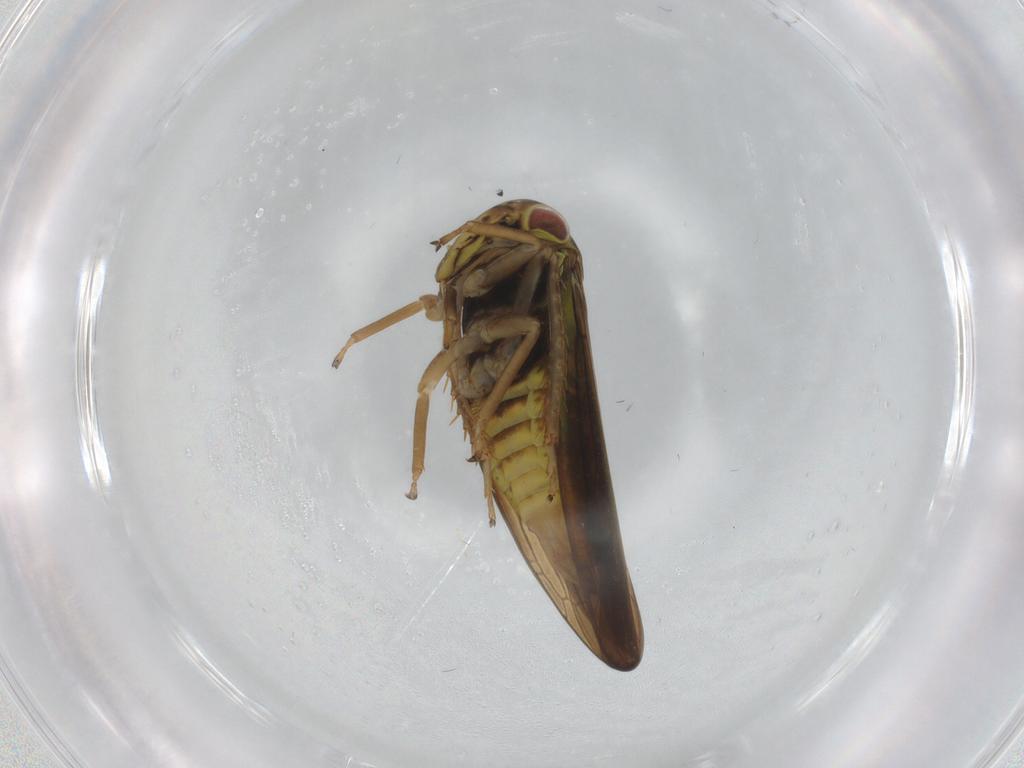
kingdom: Animalia
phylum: Arthropoda
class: Insecta
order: Hemiptera
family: Pentatomidae
